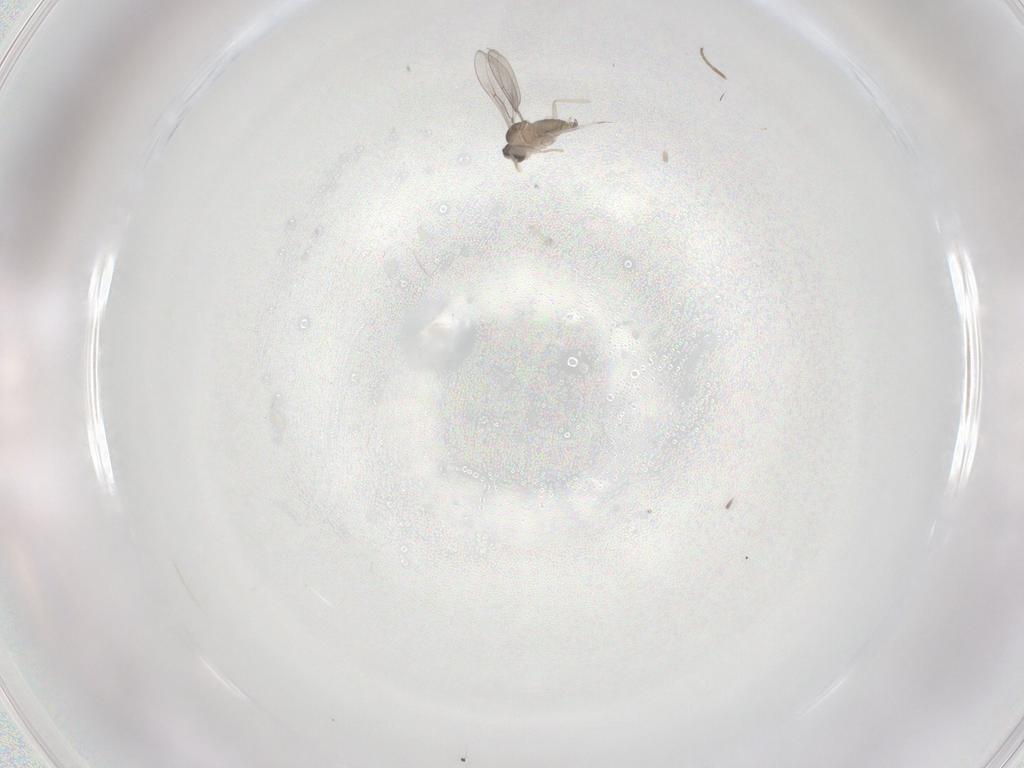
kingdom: Animalia
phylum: Arthropoda
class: Insecta
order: Diptera
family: Cecidomyiidae
